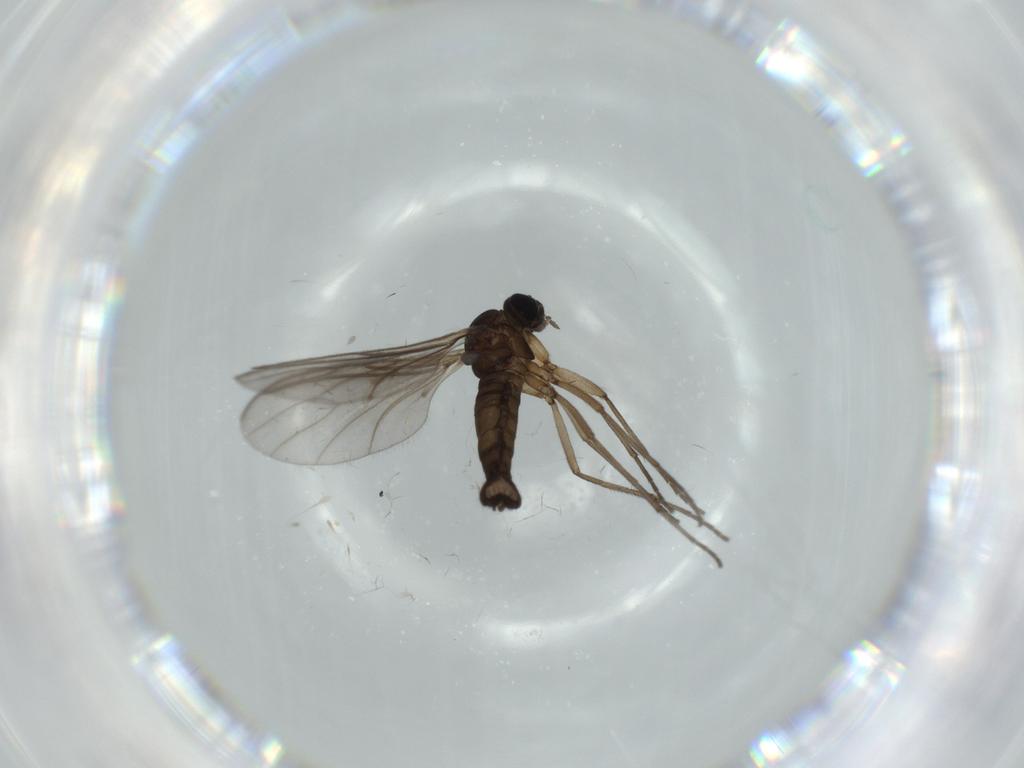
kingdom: Animalia
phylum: Arthropoda
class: Insecta
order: Diptera
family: Sciaridae
